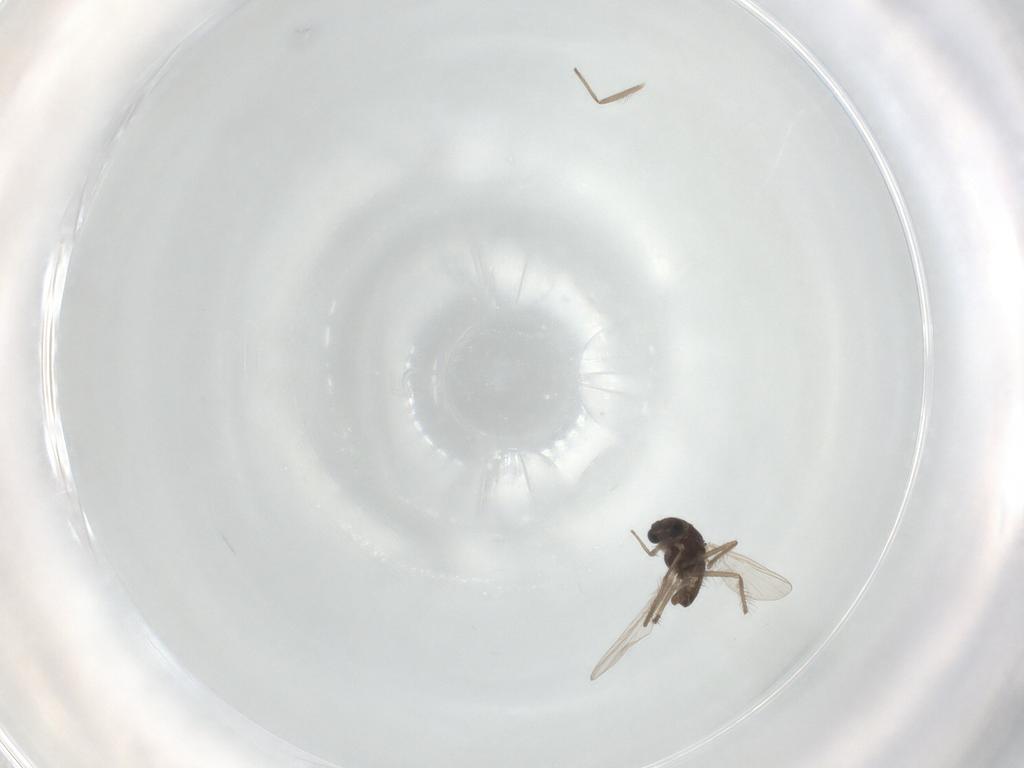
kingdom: Animalia
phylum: Arthropoda
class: Insecta
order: Diptera
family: Chironomidae
